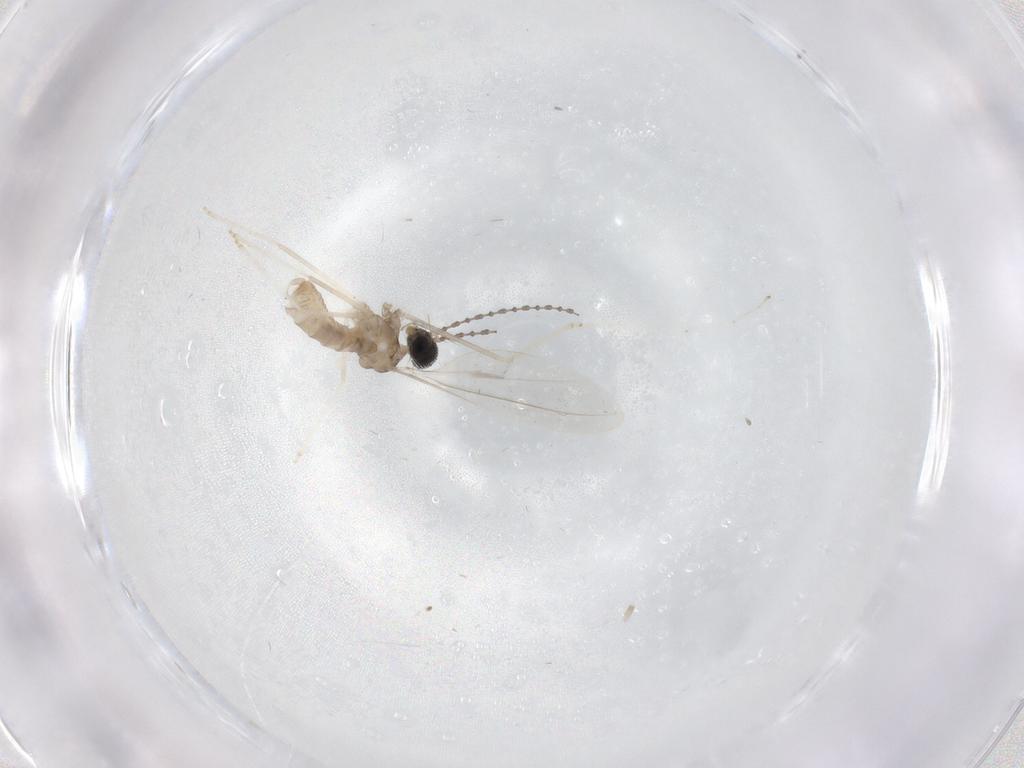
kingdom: Animalia
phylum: Arthropoda
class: Insecta
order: Diptera
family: Cecidomyiidae
